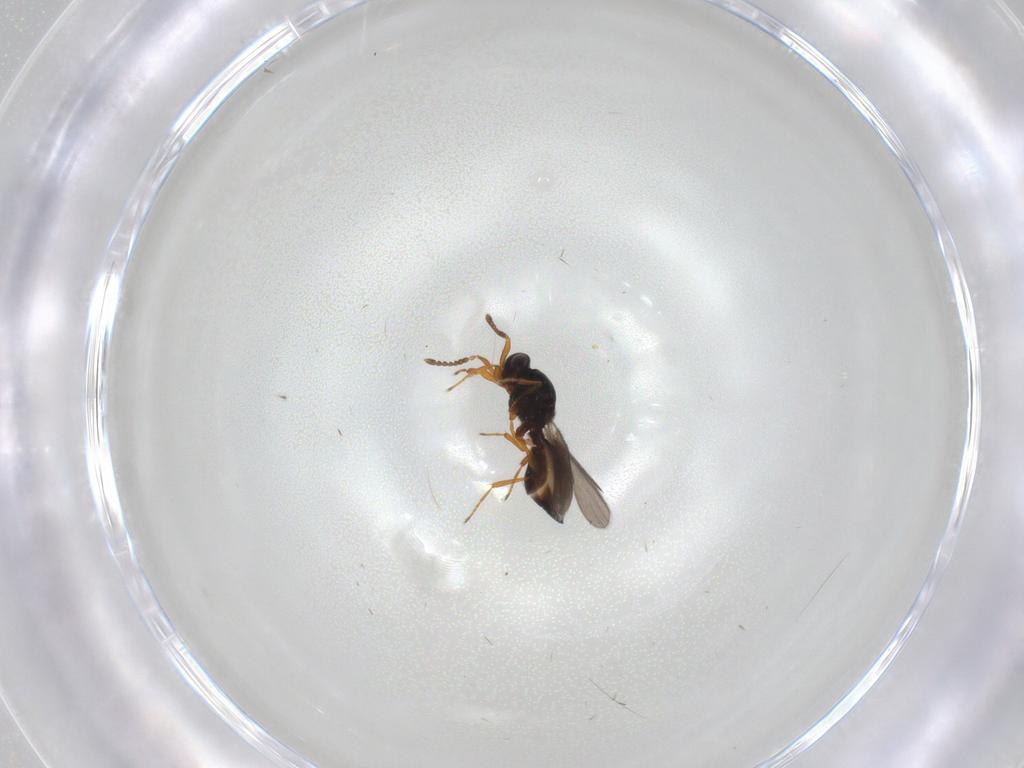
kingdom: Animalia
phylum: Arthropoda
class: Insecta
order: Hymenoptera
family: Platygastridae
